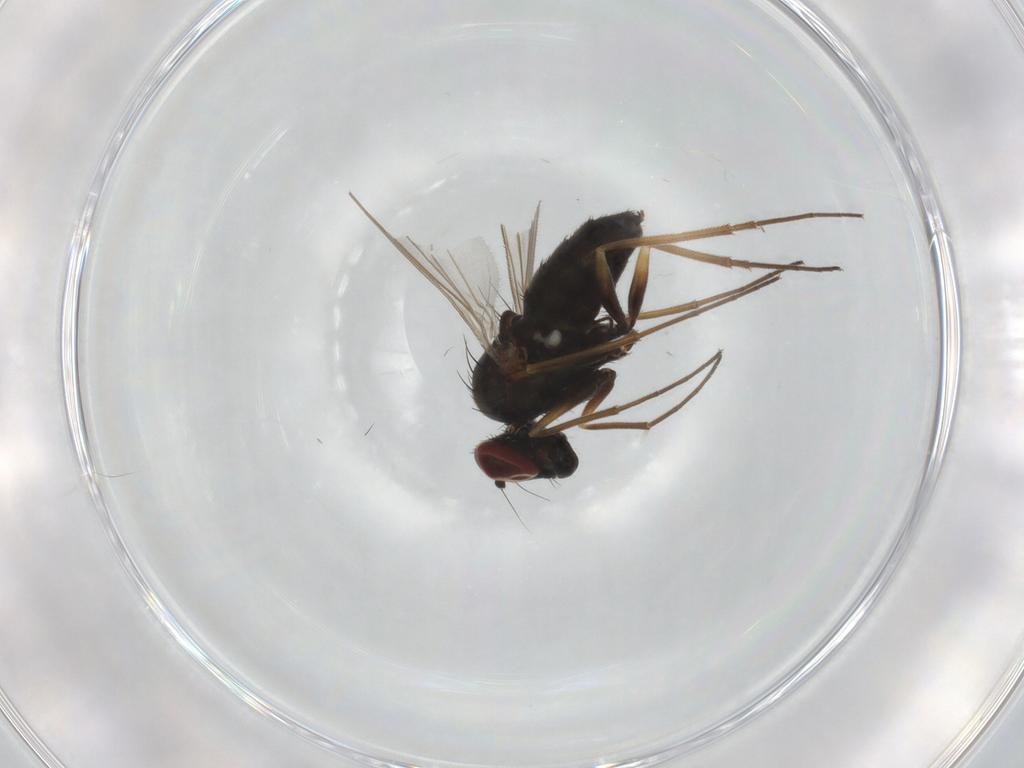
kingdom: Animalia
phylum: Arthropoda
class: Insecta
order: Diptera
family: Dolichopodidae
